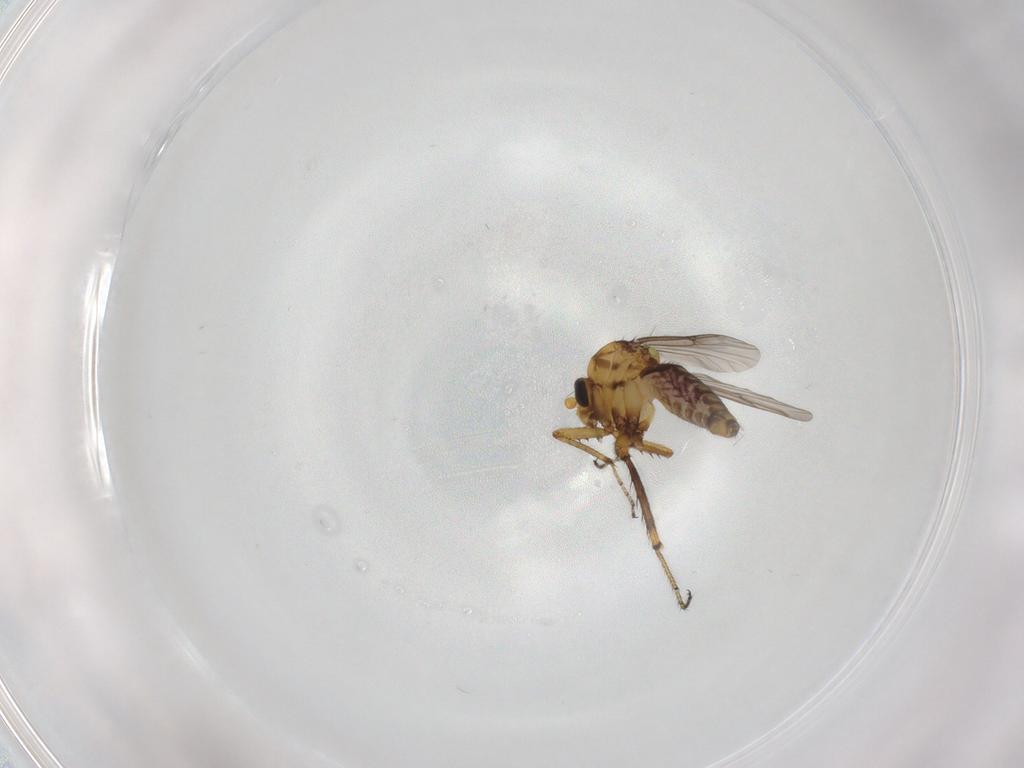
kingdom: Animalia
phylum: Arthropoda
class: Insecta
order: Diptera
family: Ceratopogonidae
